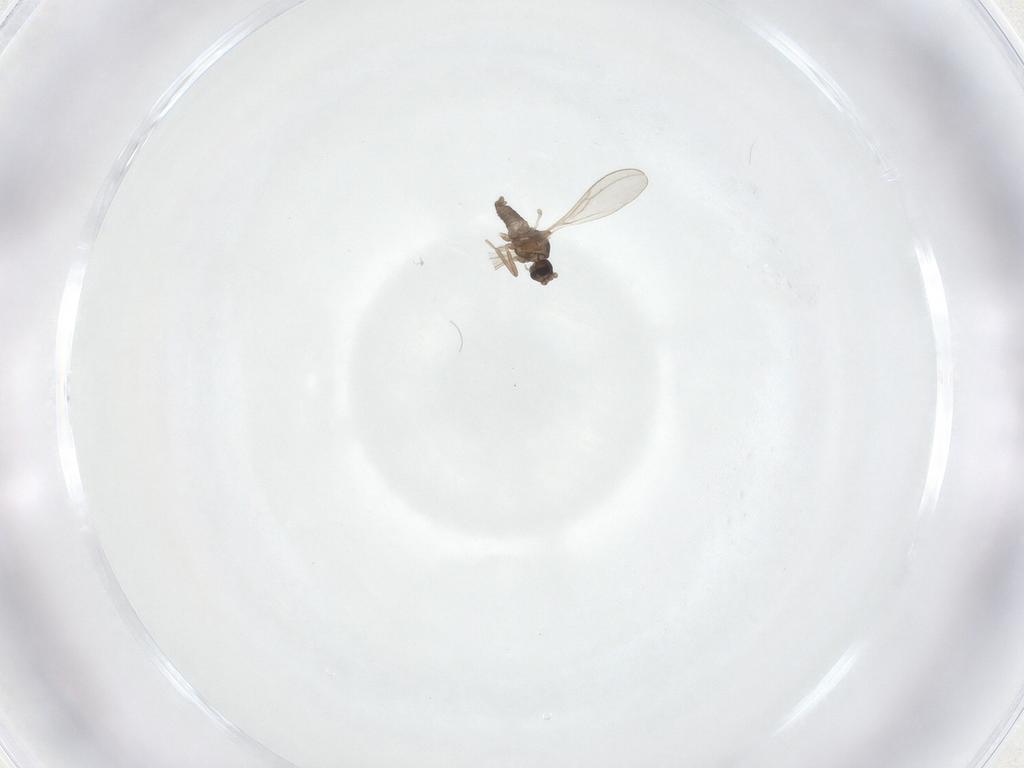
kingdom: Animalia
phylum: Arthropoda
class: Insecta
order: Diptera
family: Cecidomyiidae
